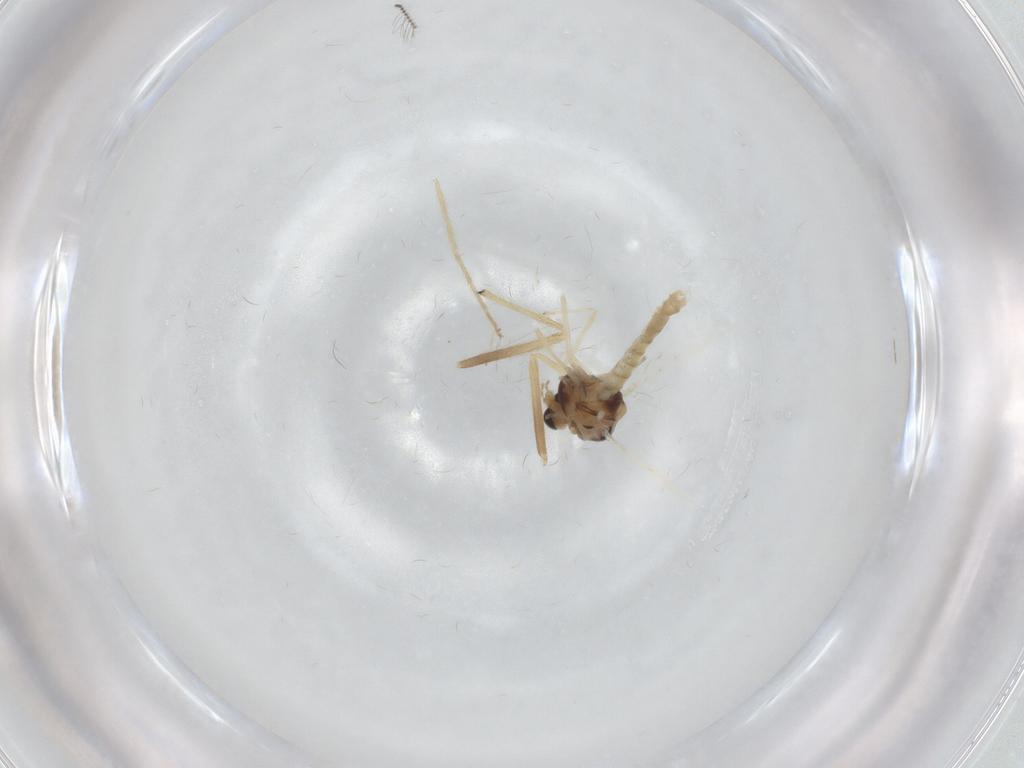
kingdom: Animalia
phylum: Arthropoda
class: Insecta
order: Diptera
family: Chironomidae
